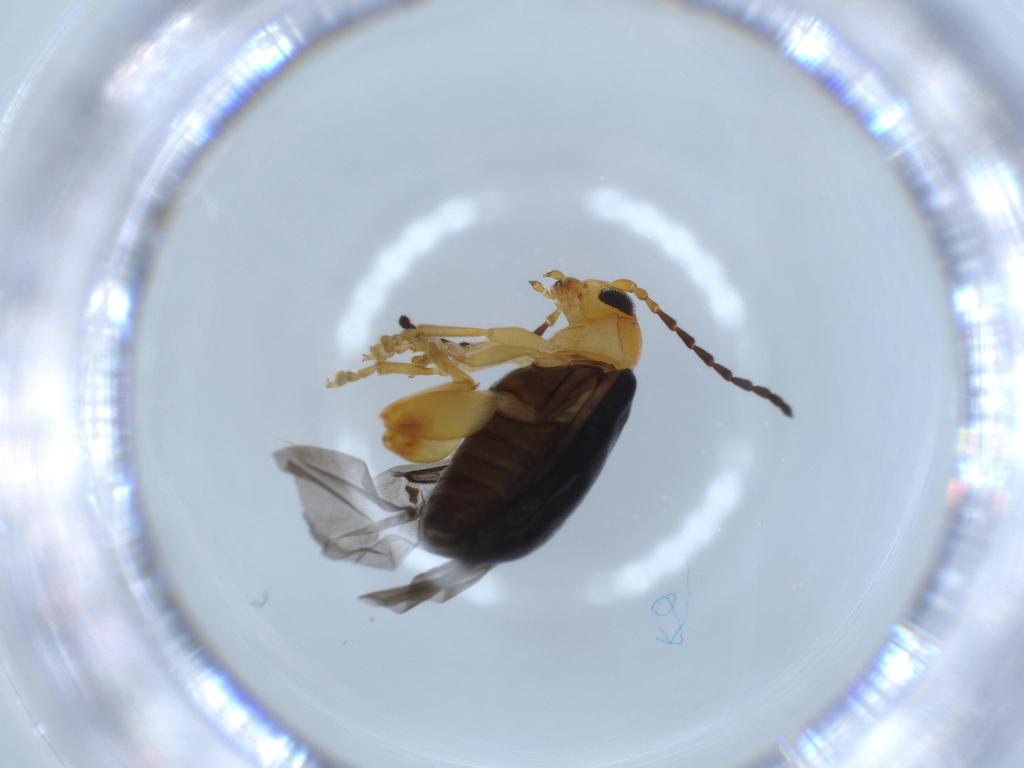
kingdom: Animalia
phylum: Arthropoda
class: Insecta
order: Coleoptera
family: Chrysomelidae
